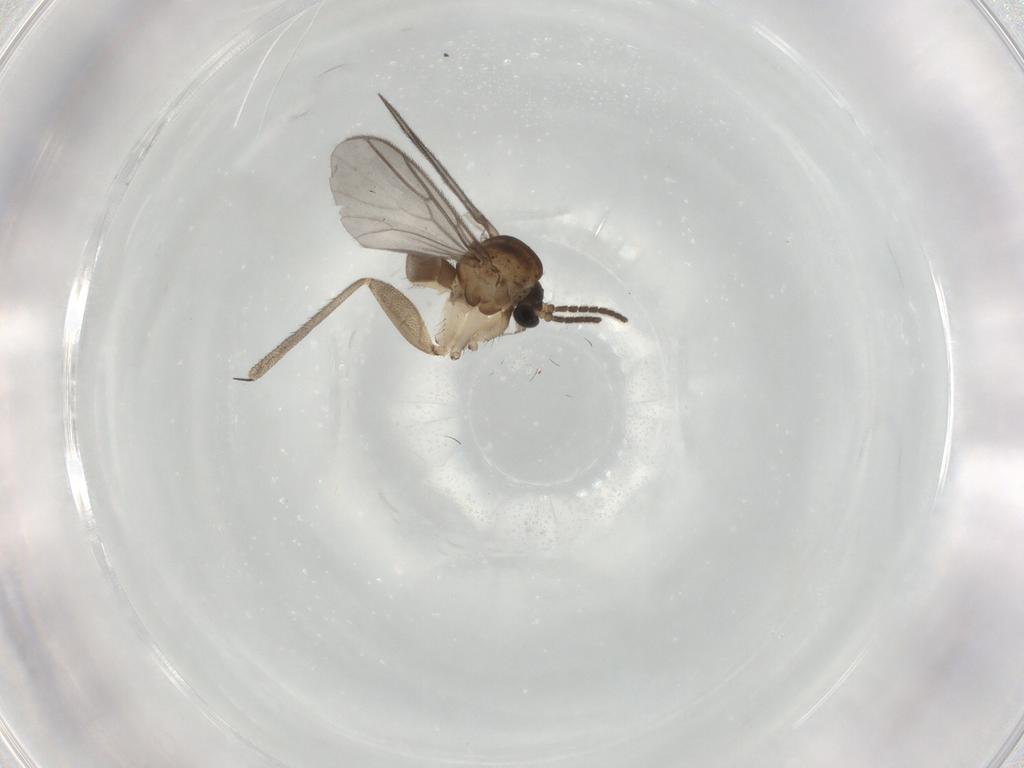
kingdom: Animalia
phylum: Arthropoda
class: Insecta
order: Diptera
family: Mycetophilidae
